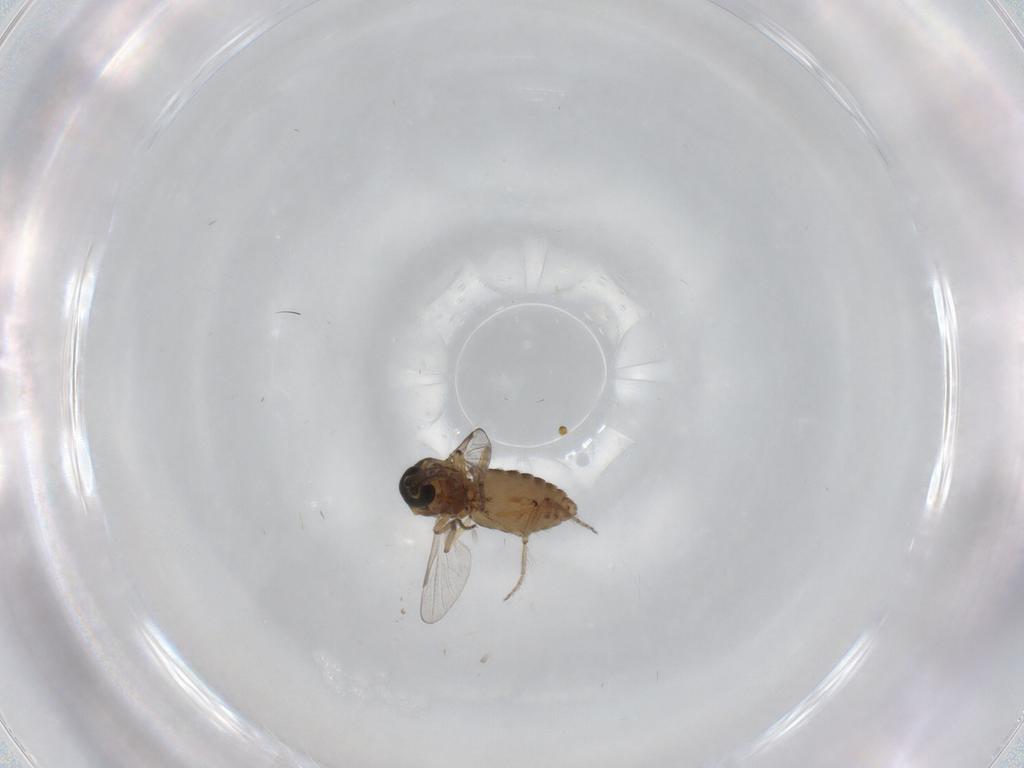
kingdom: Animalia
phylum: Arthropoda
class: Insecta
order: Diptera
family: Ceratopogonidae
